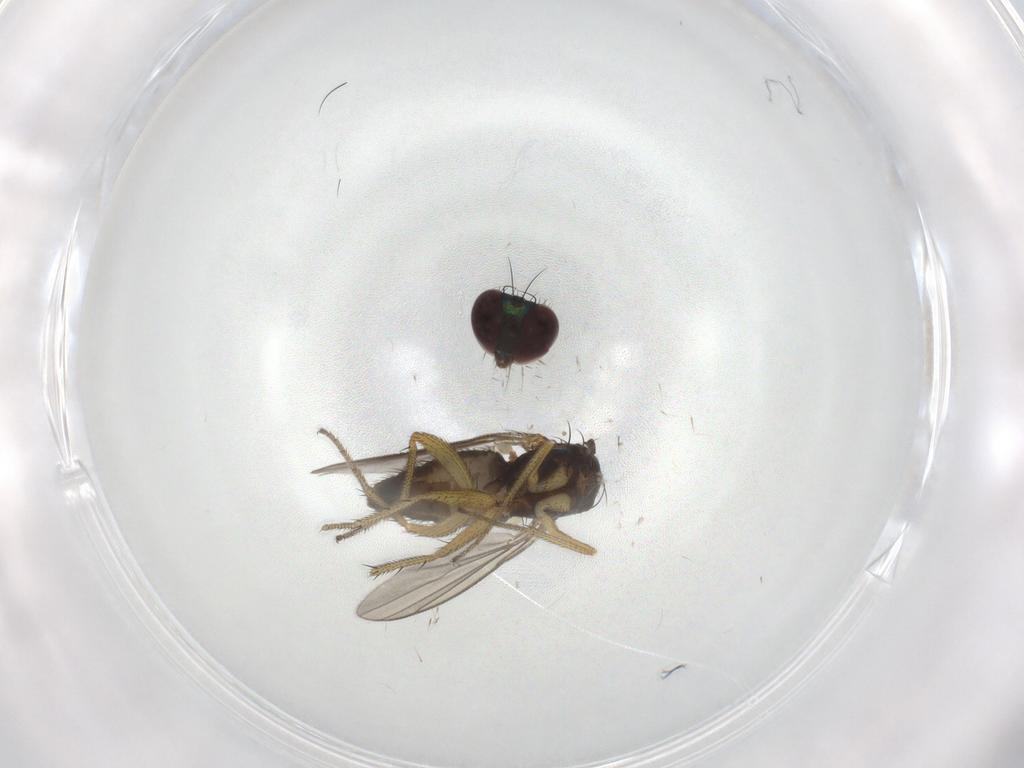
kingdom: Animalia
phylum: Arthropoda
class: Insecta
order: Diptera
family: Dolichopodidae
